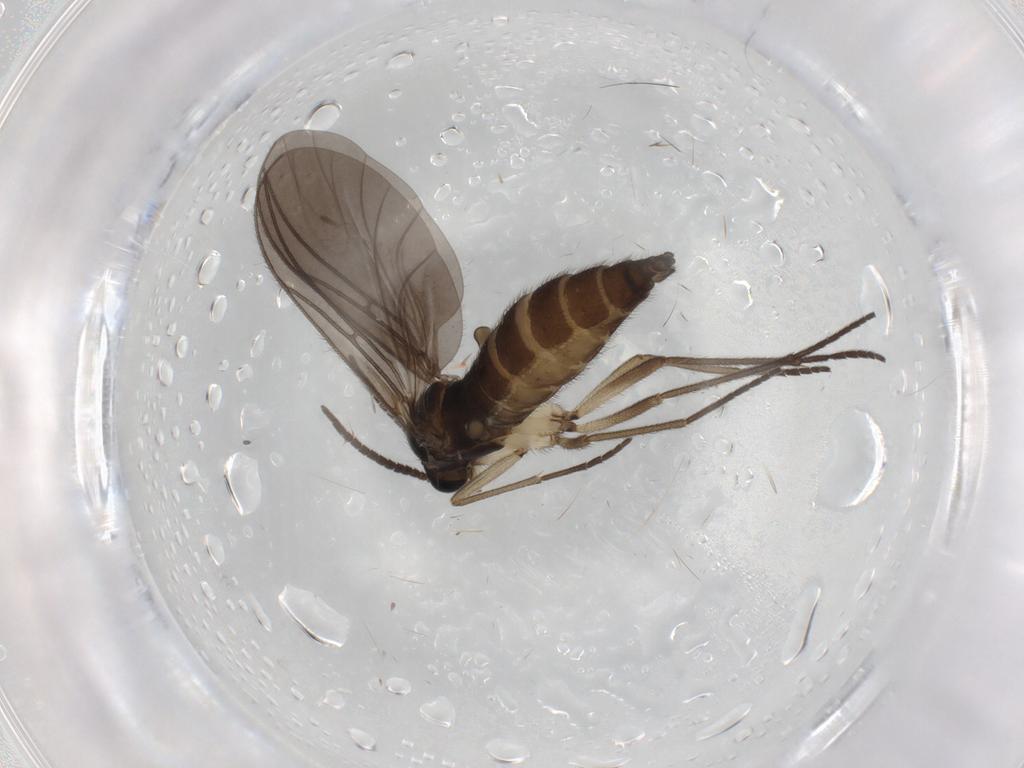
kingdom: Animalia
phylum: Arthropoda
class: Insecta
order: Diptera
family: Sciaridae
